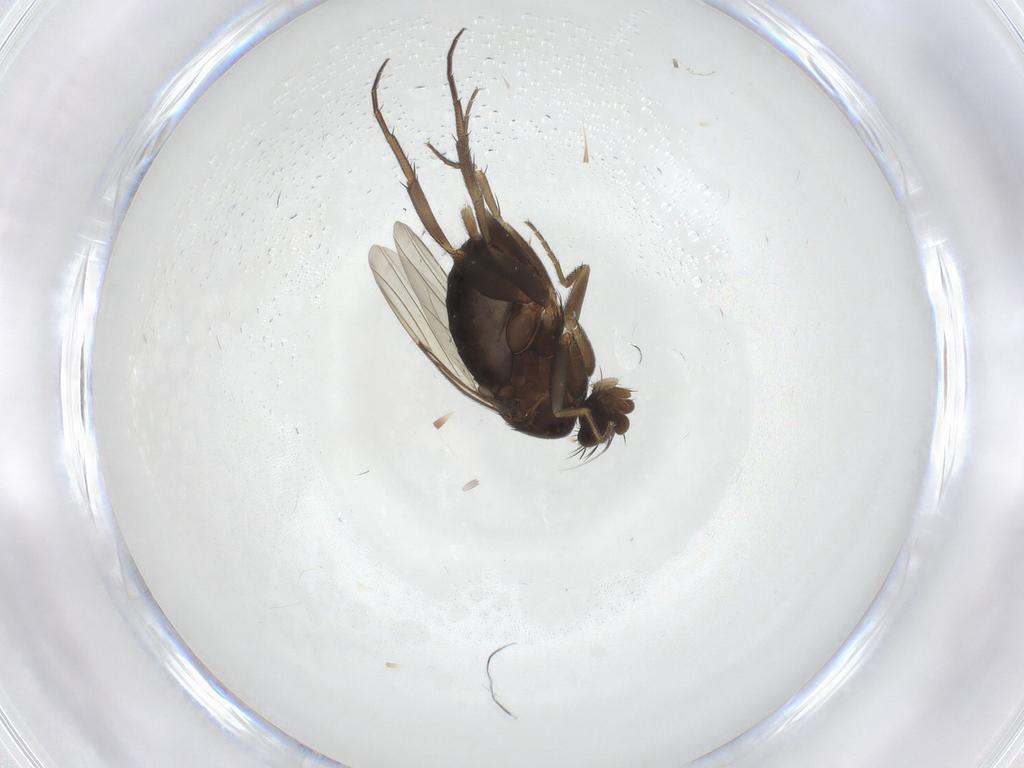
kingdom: Animalia
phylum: Arthropoda
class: Insecta
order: Diptera
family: Phoridae
